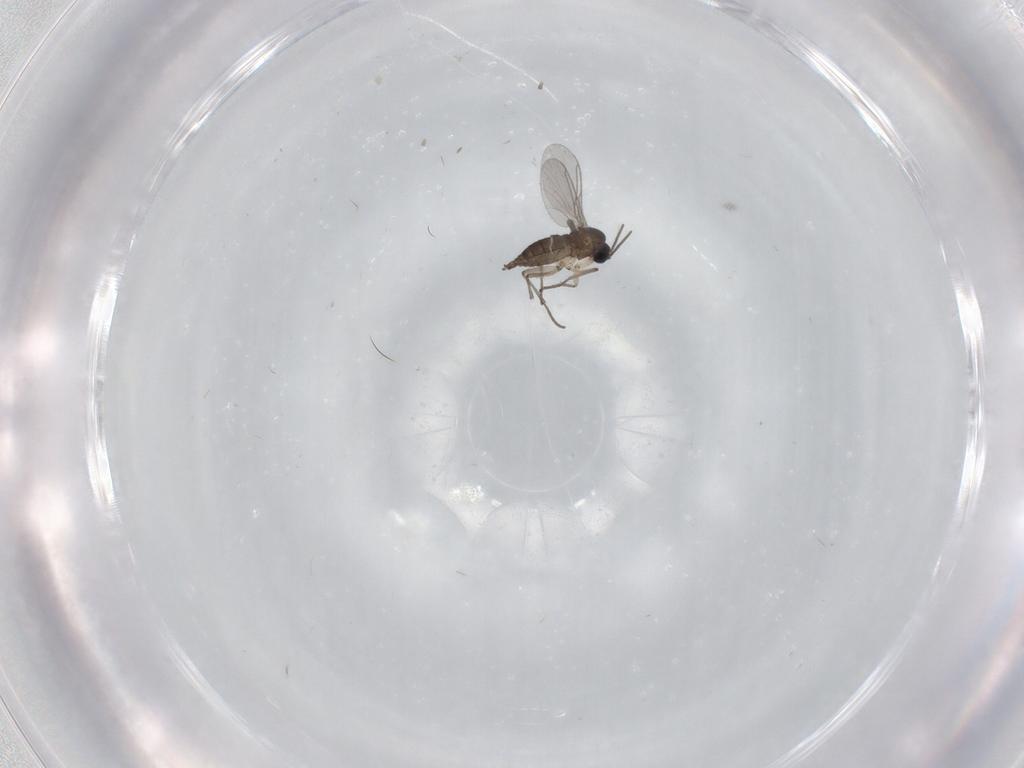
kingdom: Animalia
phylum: Arthropoda
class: Insecta
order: Diptera
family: Sciaridae
